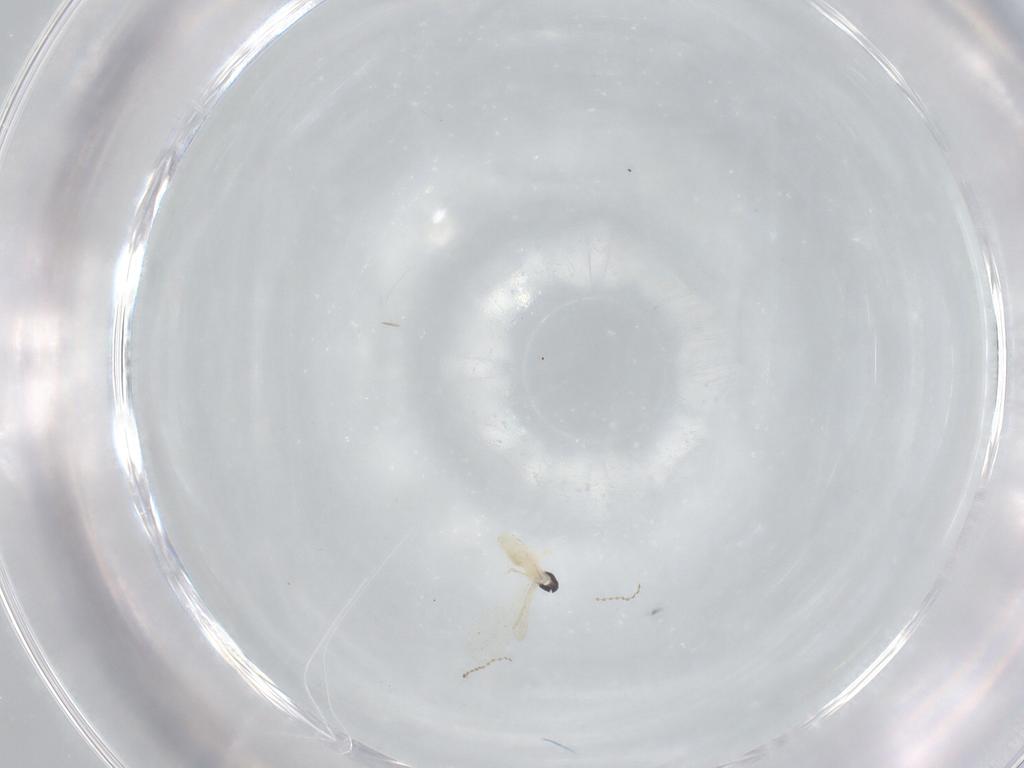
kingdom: Animalia
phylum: Arthropoda
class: Insecta
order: Diptera
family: Cecidomyiidae
